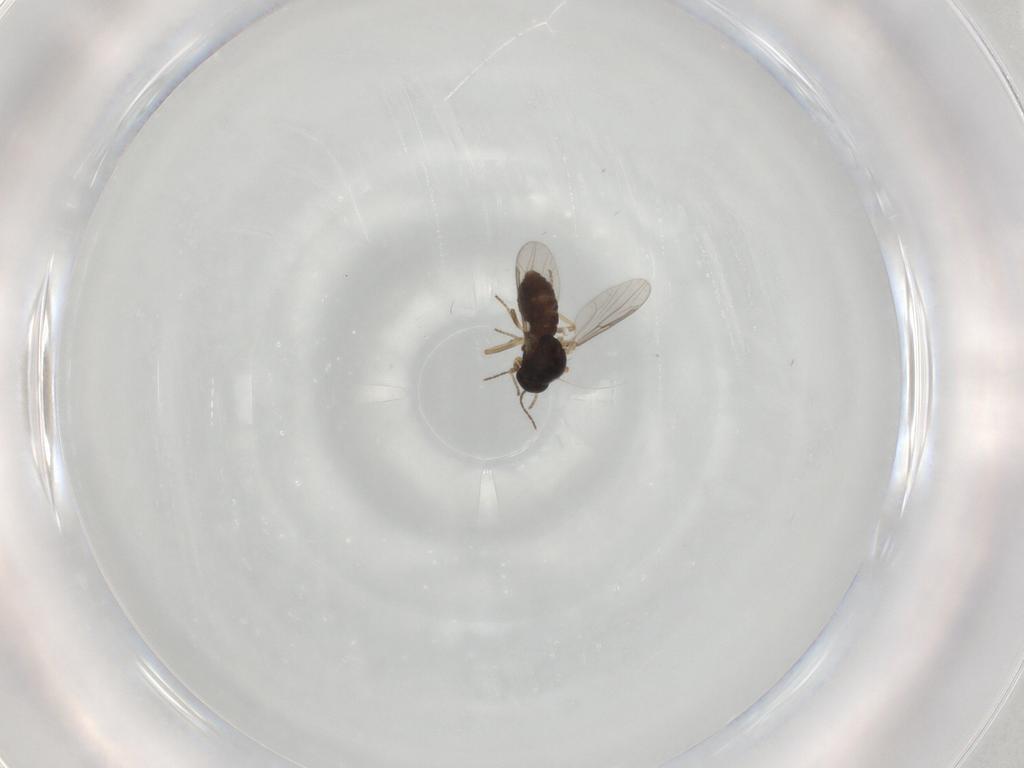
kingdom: Animalia
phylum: Arthropoda
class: Insecta
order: Diptera
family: Ceratopogonidae
